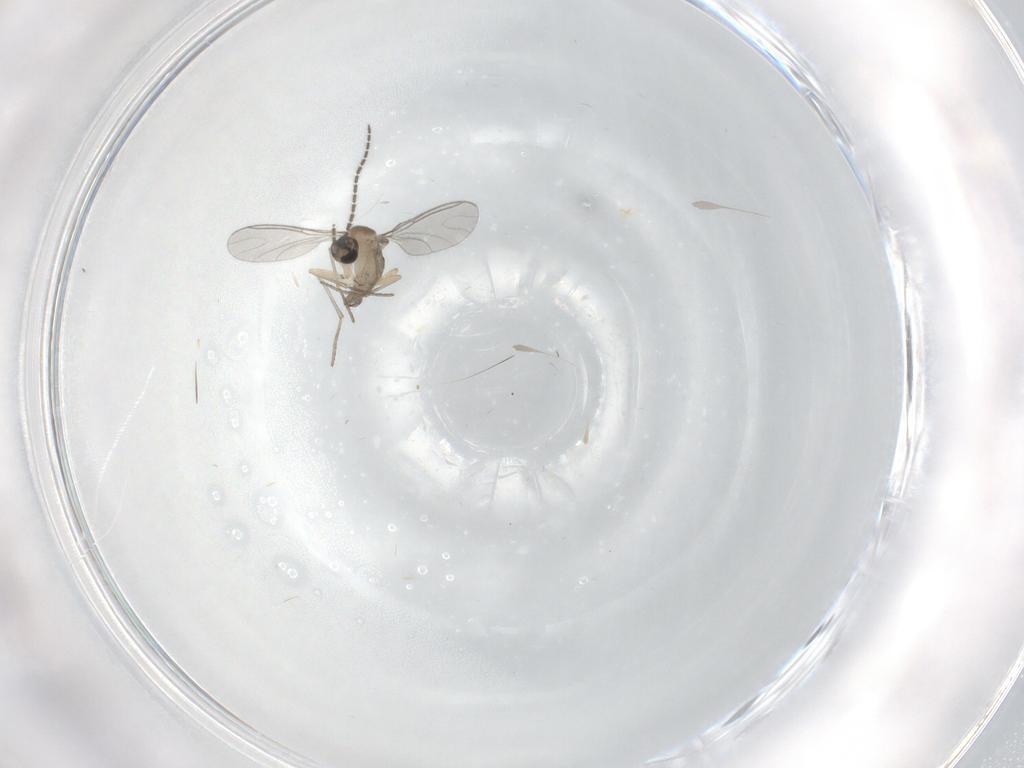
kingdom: Animalia
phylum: Arthropoda
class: Insecta
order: Diptera
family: Sciaridae
